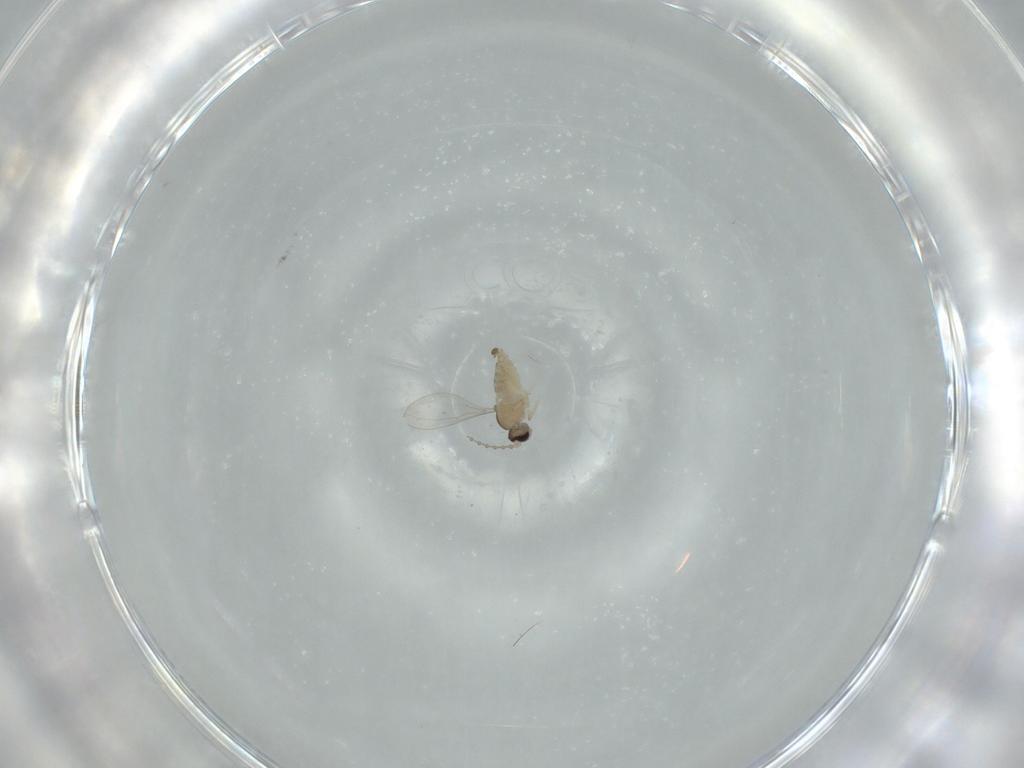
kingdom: Animalia
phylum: Arthropoda
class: Insecta
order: Diptera
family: Cecidomyiidae
